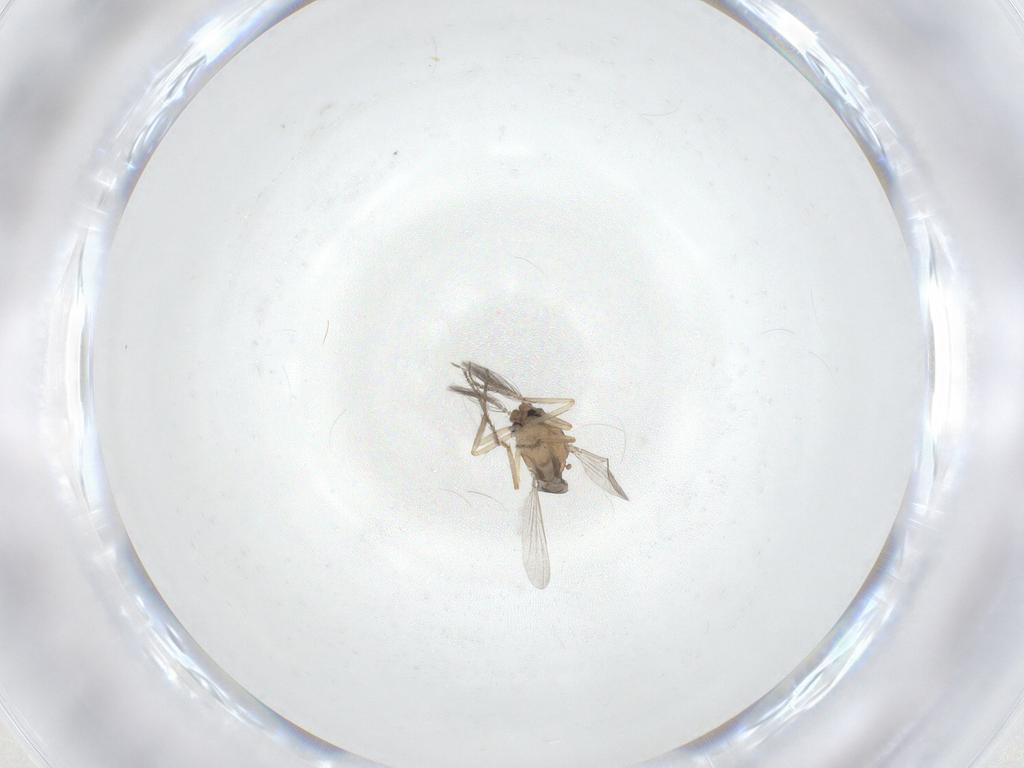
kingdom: Animalia
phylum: Arthropoda
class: Insecta
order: Diptera
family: Ceratopogonidae
